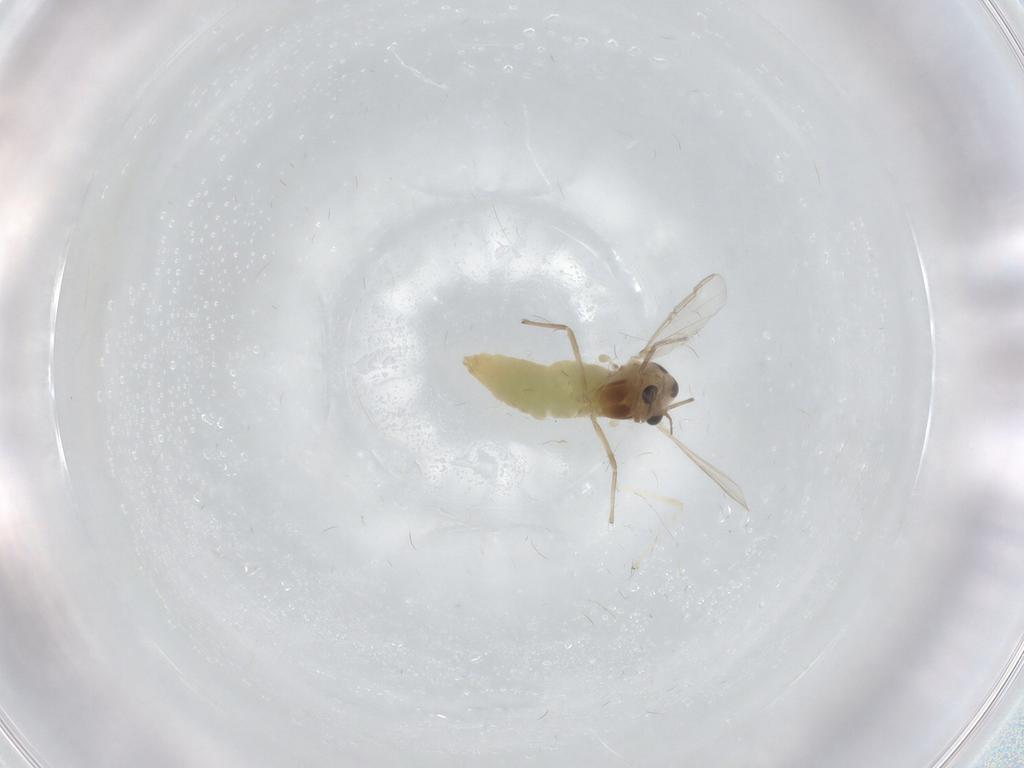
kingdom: Animalia
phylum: Arthropoda
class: Insecta
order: Diptera
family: Chironomidae
